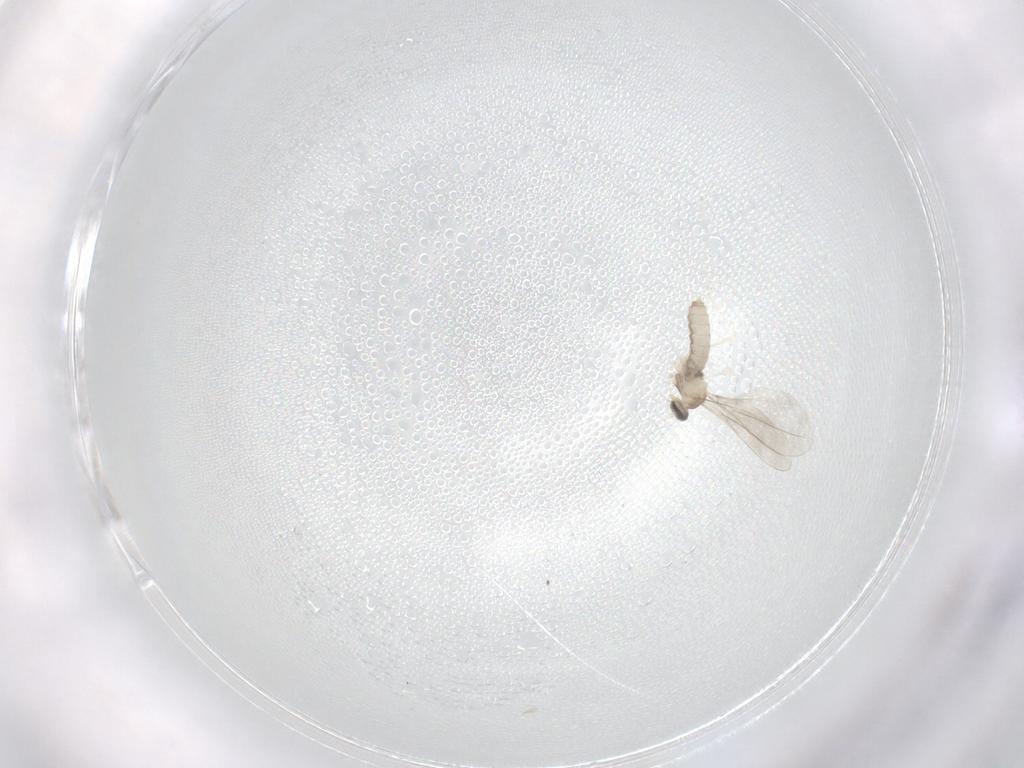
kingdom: Animalia
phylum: Arthropoda
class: Insecta
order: Diptera
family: Cecidomyiidae
